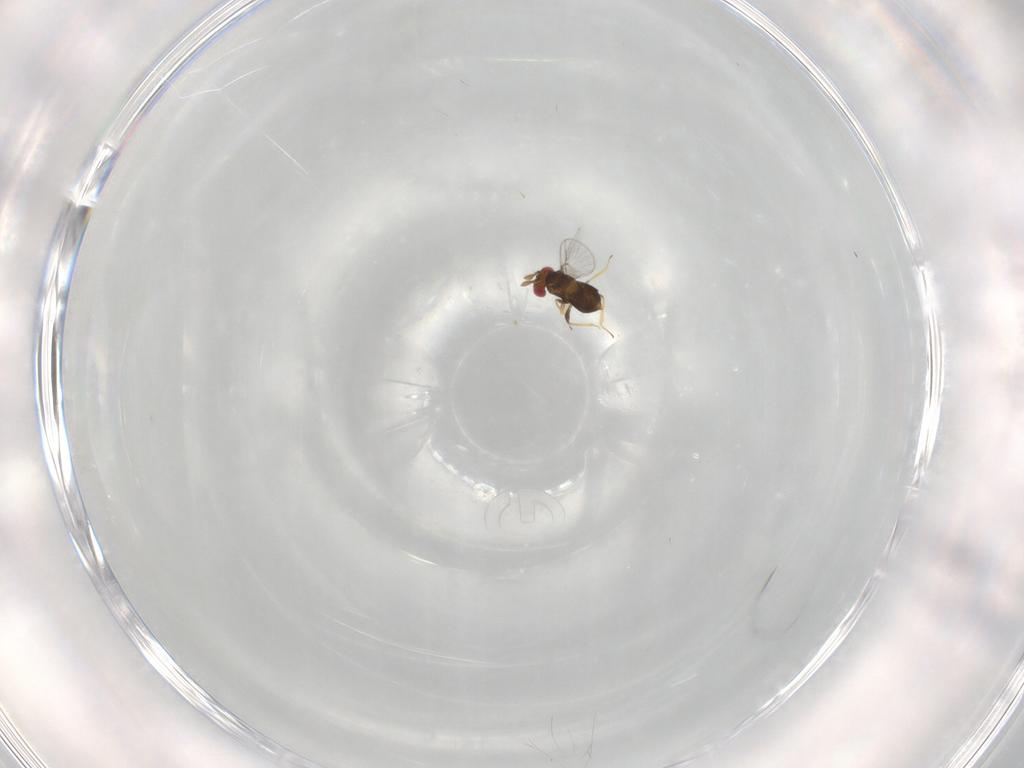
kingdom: Animalia
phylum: Arthropoda
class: Insecta
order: Hymenoptera
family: Trichogrammatidae
